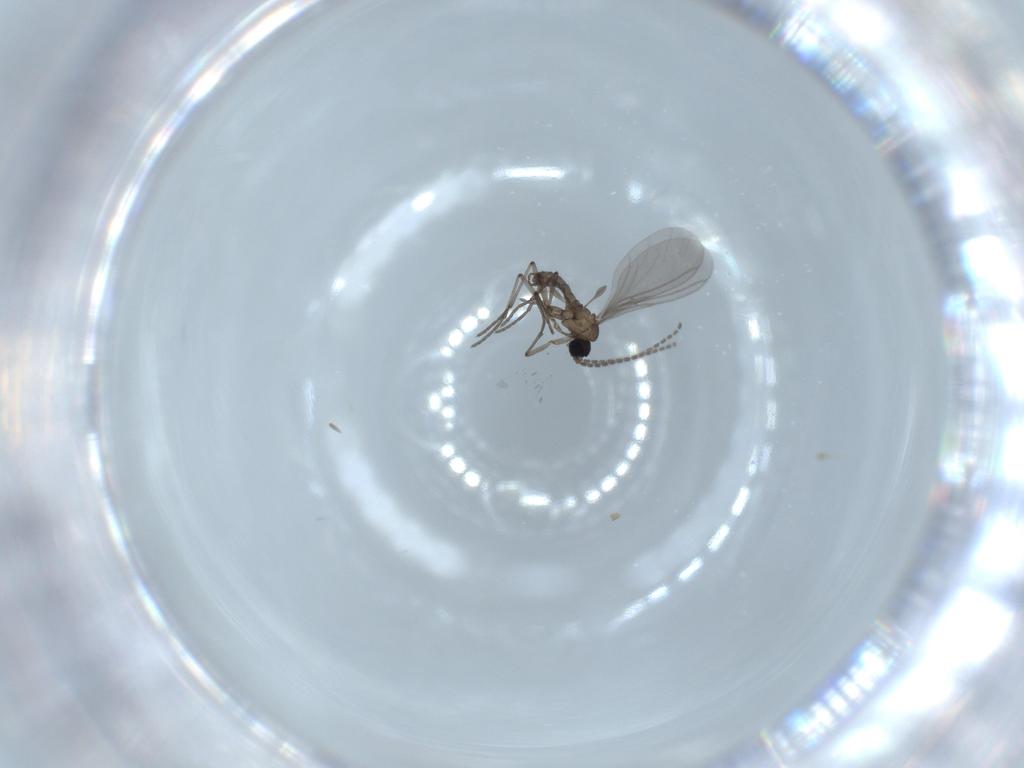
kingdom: Animalia
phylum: Arthropoda
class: Insecta
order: Diptera
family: Sciaridae
